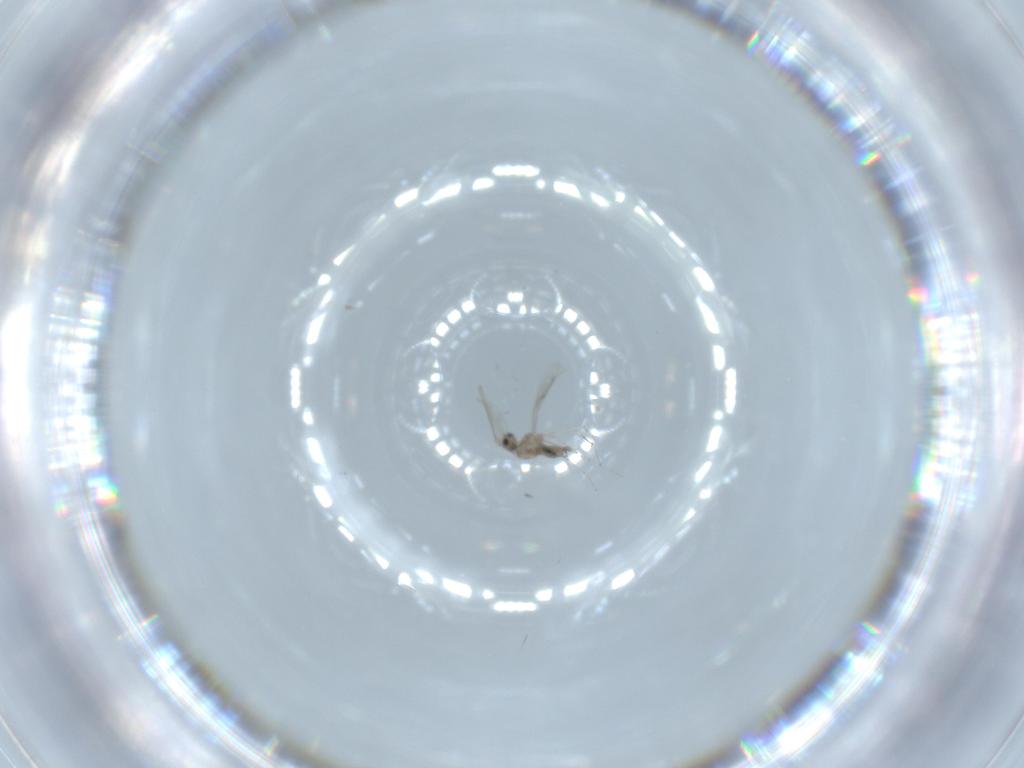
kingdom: Animalia
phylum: Arthropoda
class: Insecta
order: Diptera
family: Cecidomyiidae
